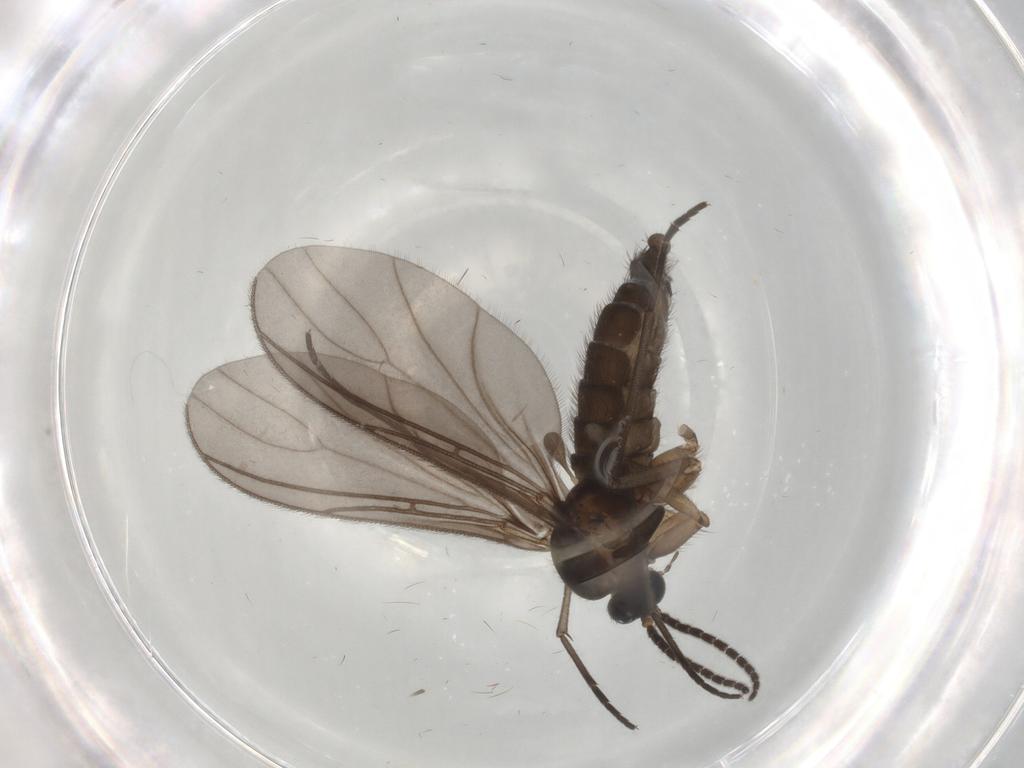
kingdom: Animalia
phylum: Arthropoda
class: Insecta
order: Diptera
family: Sciaridae
